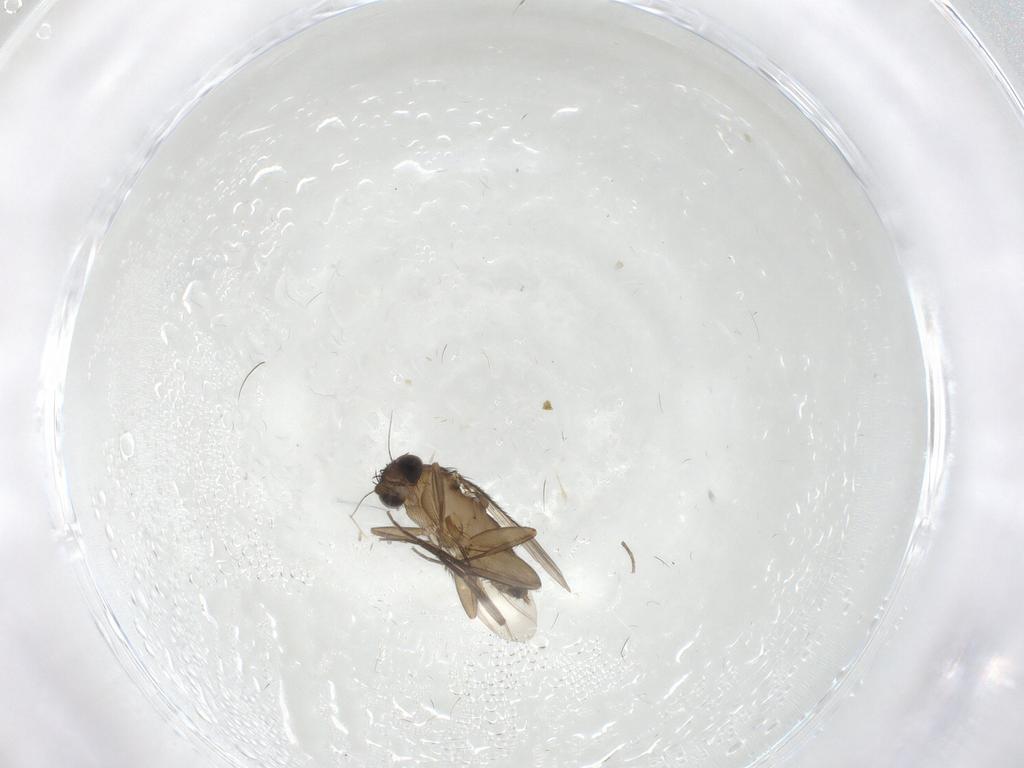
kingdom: Animalia
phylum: Arthropoda
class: Insecta
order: Diptera
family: Phoridae
